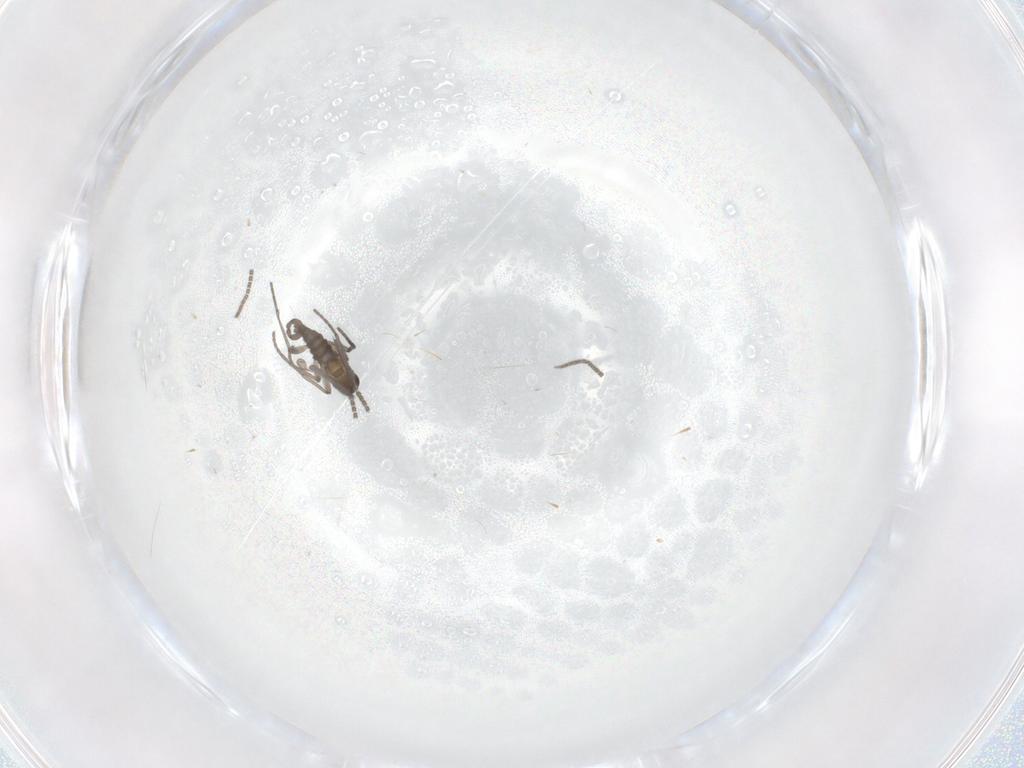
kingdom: Animalia
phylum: Arthropoda
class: Insecta
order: Diptera
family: Sciaridae
